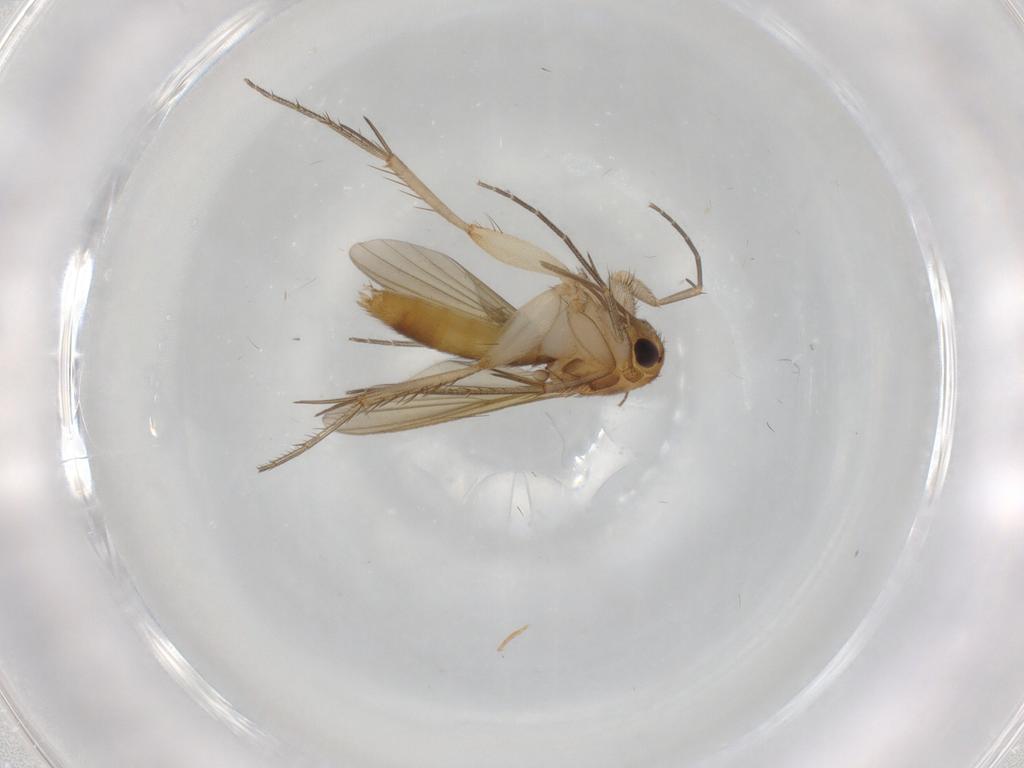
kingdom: Animalia
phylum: Arthropoda
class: Insecta
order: Diptera
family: Mycetophilidae
